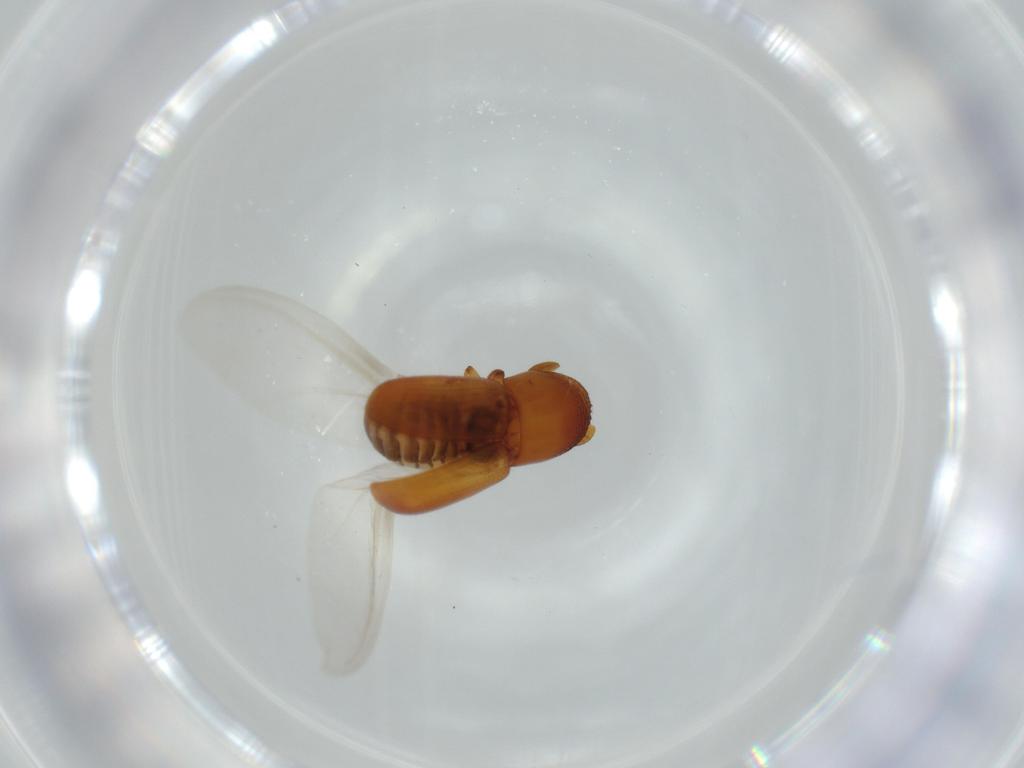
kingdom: Animalia
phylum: Arthropoda
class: Insecta
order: Coleoptera
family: Curculionidae
